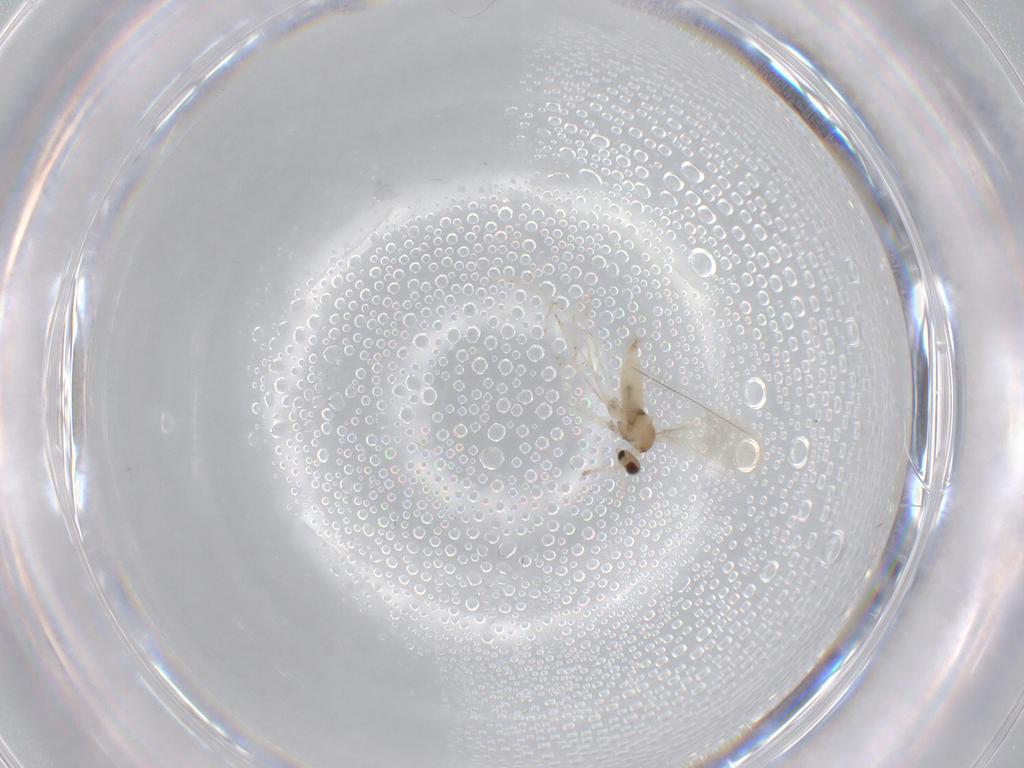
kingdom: Animalia
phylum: Arthropoda
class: Insecta
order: Diptera
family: Cecidomyiidae
